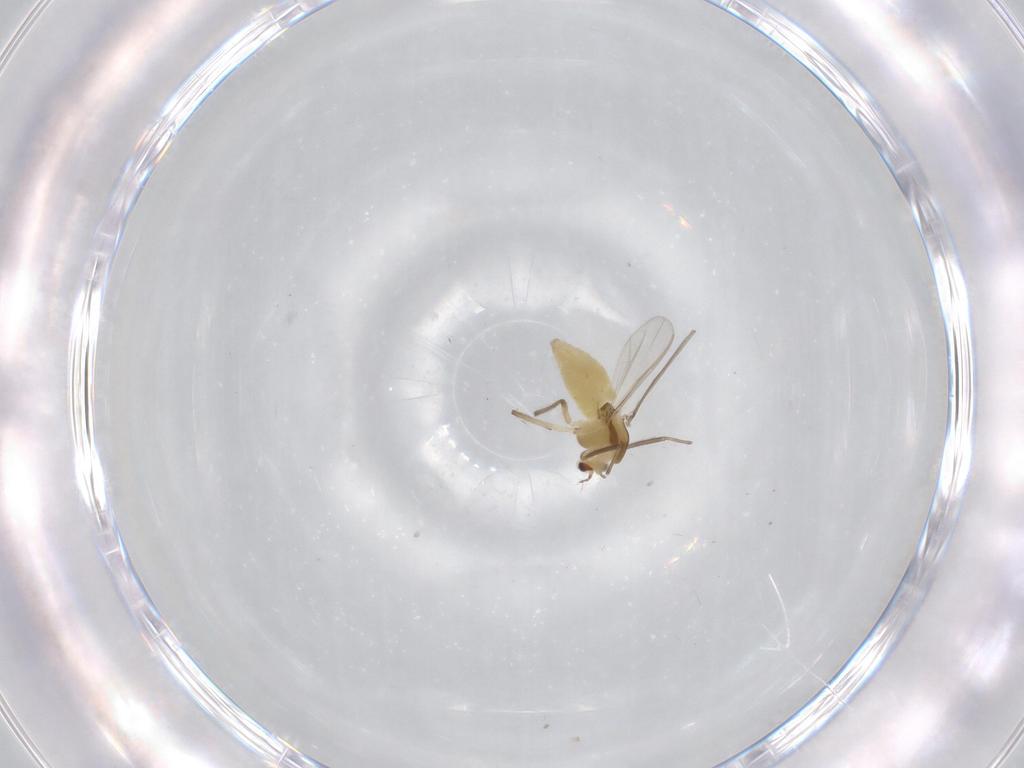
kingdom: Animalia
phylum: Arthropoda
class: Insecta
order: Diptera
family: Chironomidae
